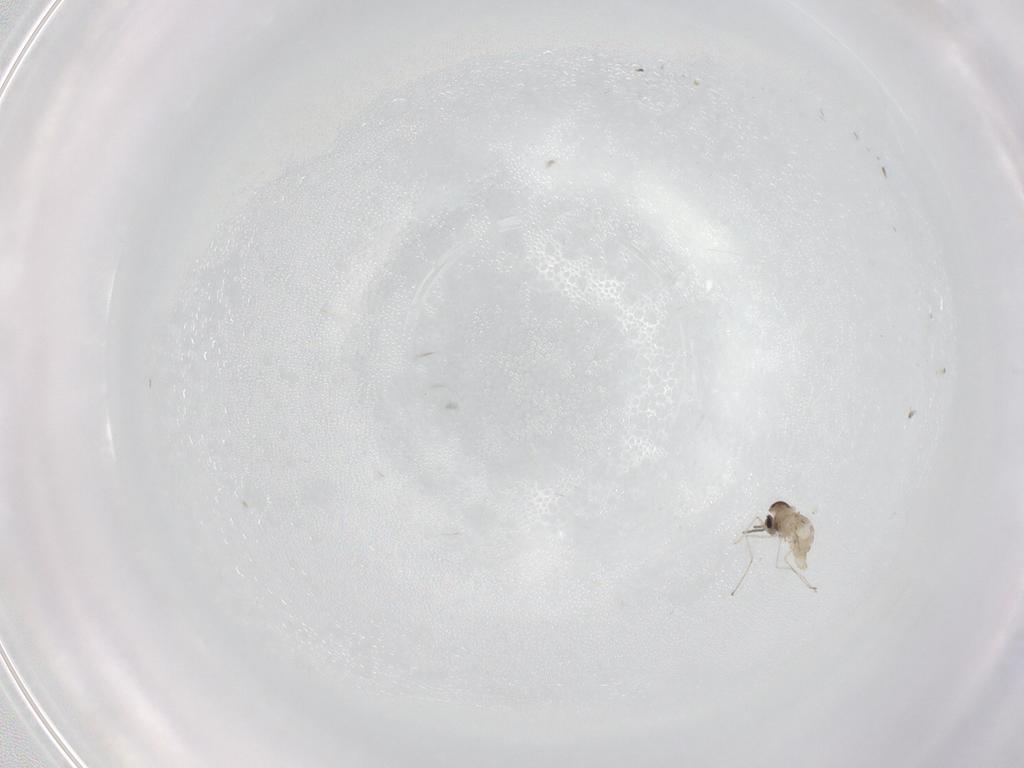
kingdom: Animalia
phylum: Arthropoda
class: Insecta
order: Diptera
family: Cecidomyiidae
